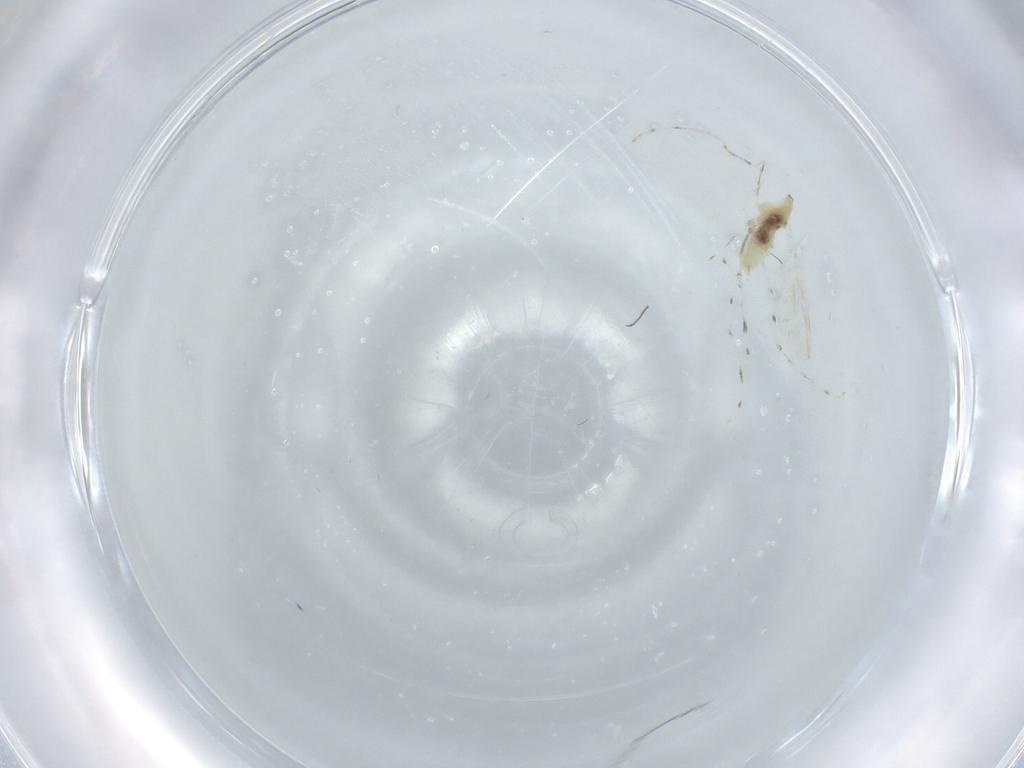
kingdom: Animalia
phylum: Arthropoda
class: Insecta
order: Diptera
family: Cecidomyiidae
